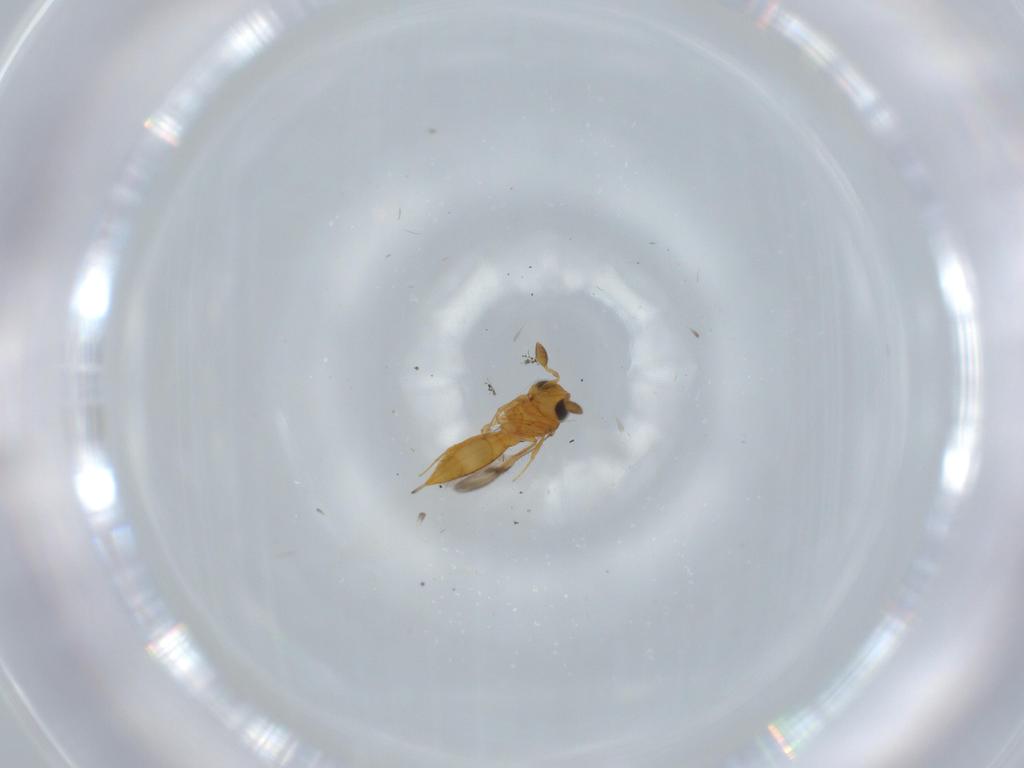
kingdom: Animalia
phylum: Arthropoda
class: Insecta
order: Hymenoptera
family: Scelionidae
